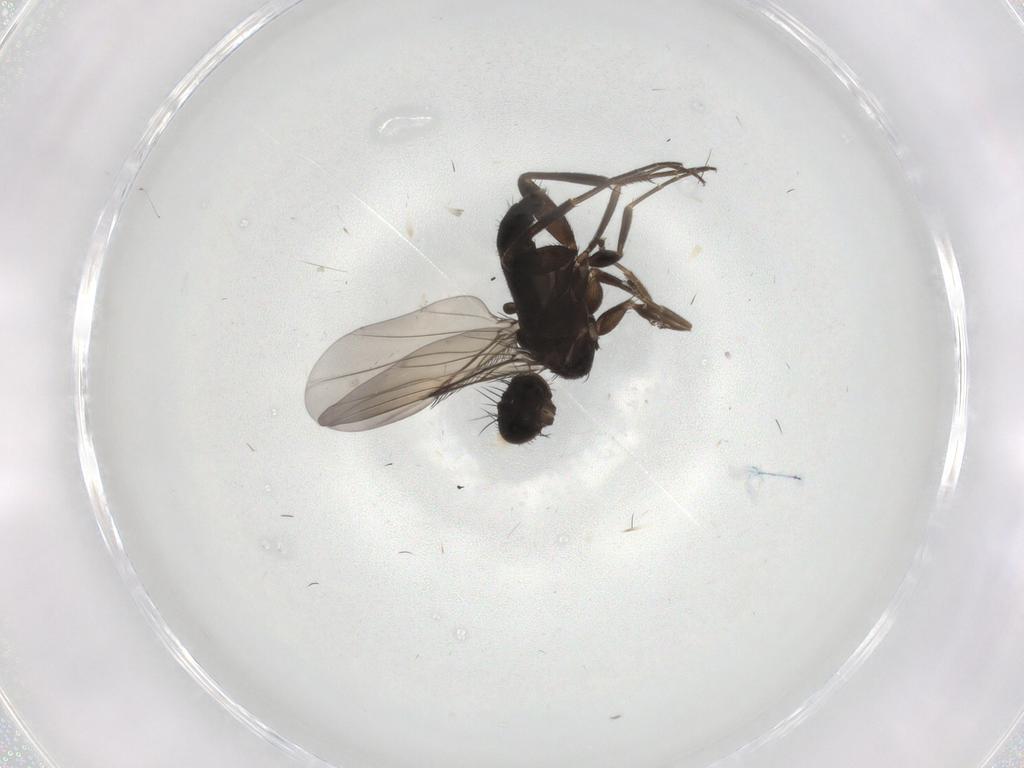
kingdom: Animalia
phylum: Arthropoda
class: Insecta
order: Diptera
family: Phoridae
